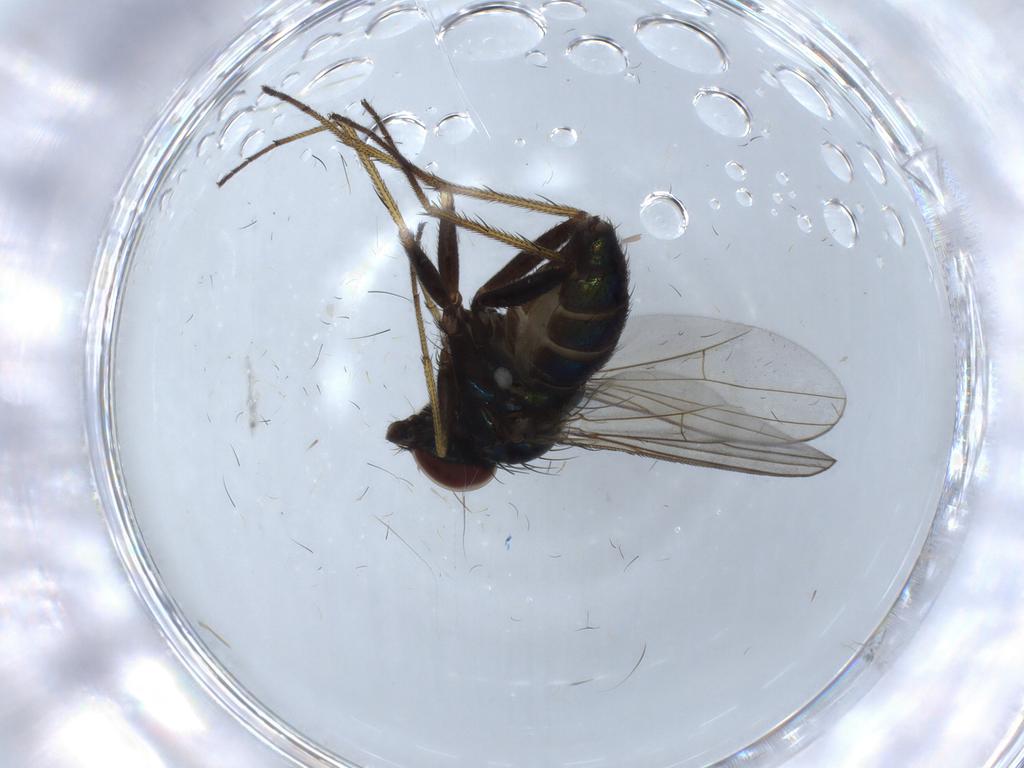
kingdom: Animalia
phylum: Arthropoda
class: Insecta
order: Diptera
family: Dolichopodidae
